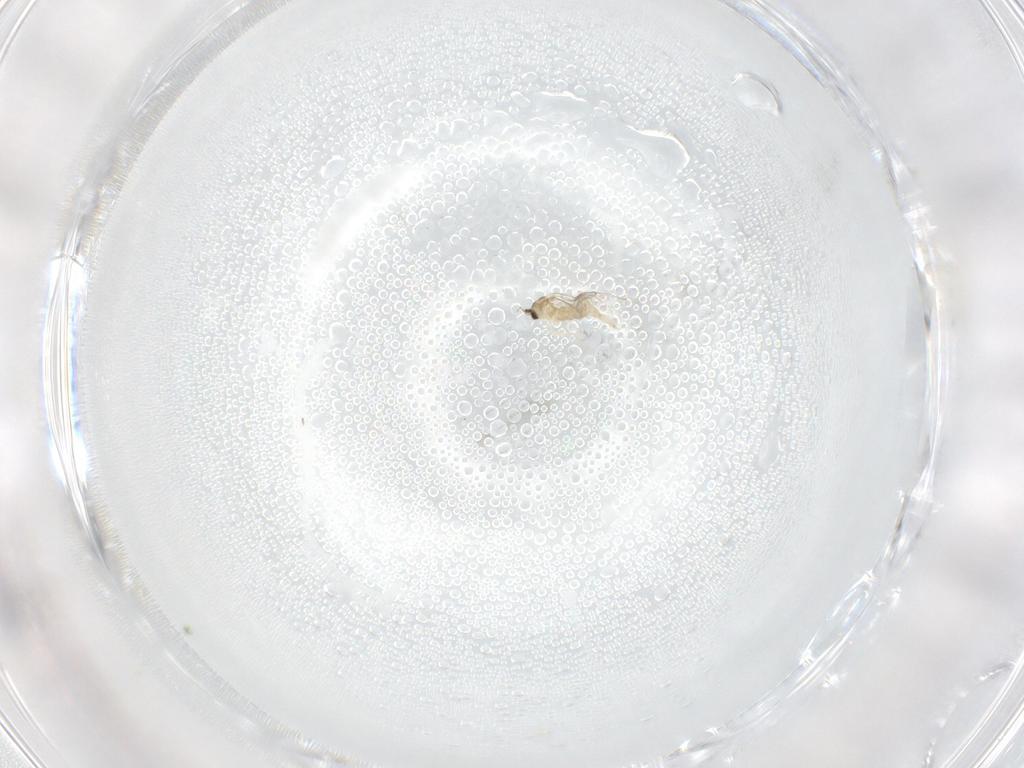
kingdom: Animalia
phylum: Arthropoda
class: Insecta
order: Diptera
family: Cecidomyiidae
